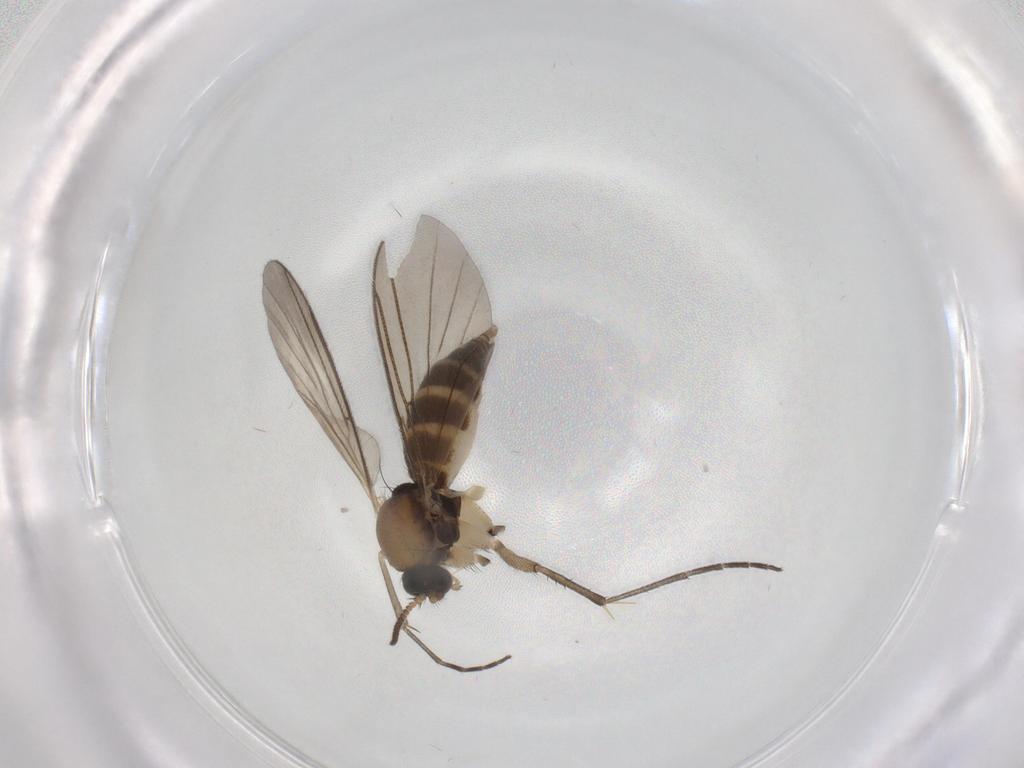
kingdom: Animalia
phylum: Arthropoda
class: Insecta
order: Diptera
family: Mycetophilidae
